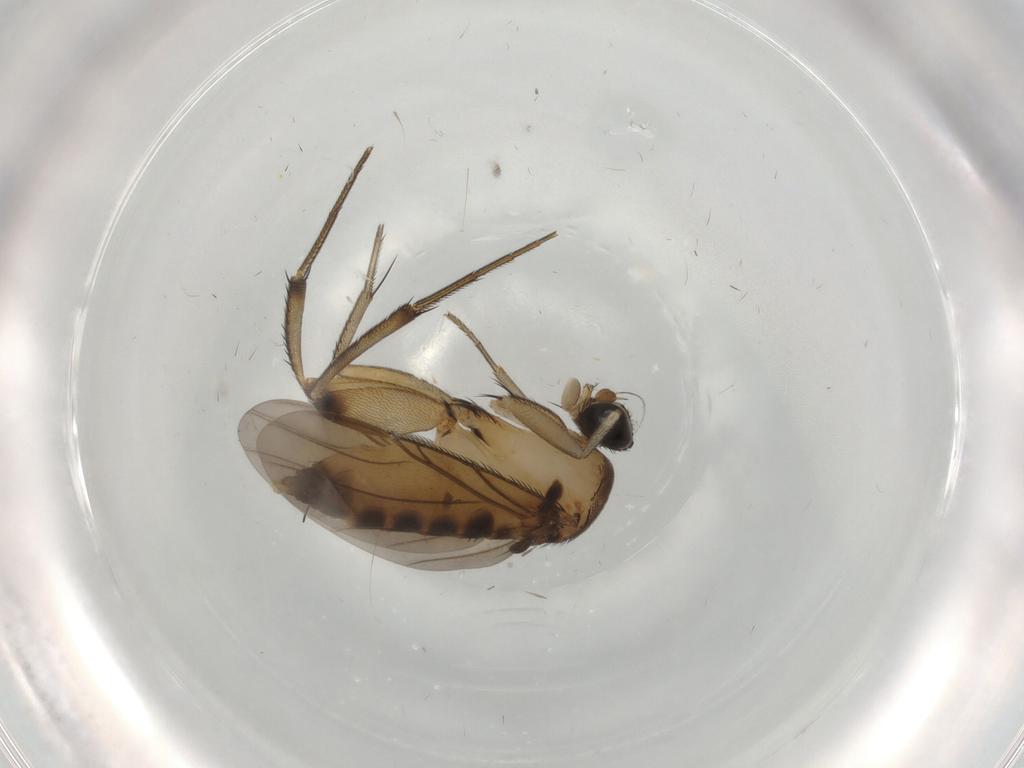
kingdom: Animalia
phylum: Arthropoda
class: Insecta
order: Diptera
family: Phoridae
